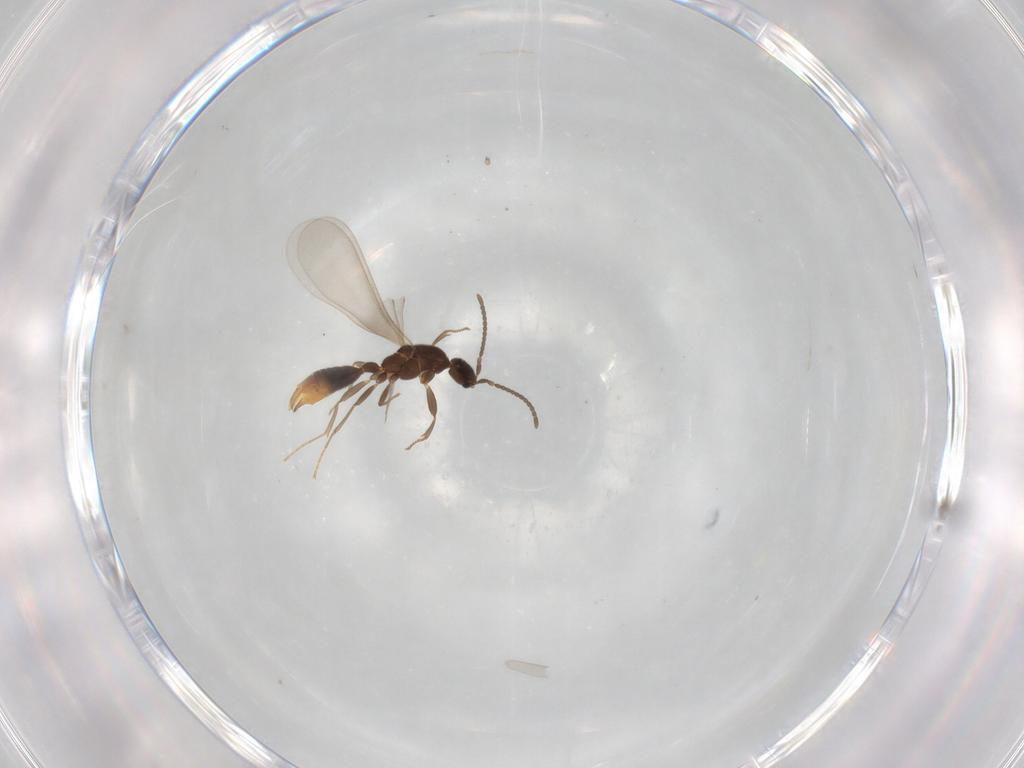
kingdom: Animalia
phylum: Arthropoda
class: Insecta
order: Hymenoptera
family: Formicidae
